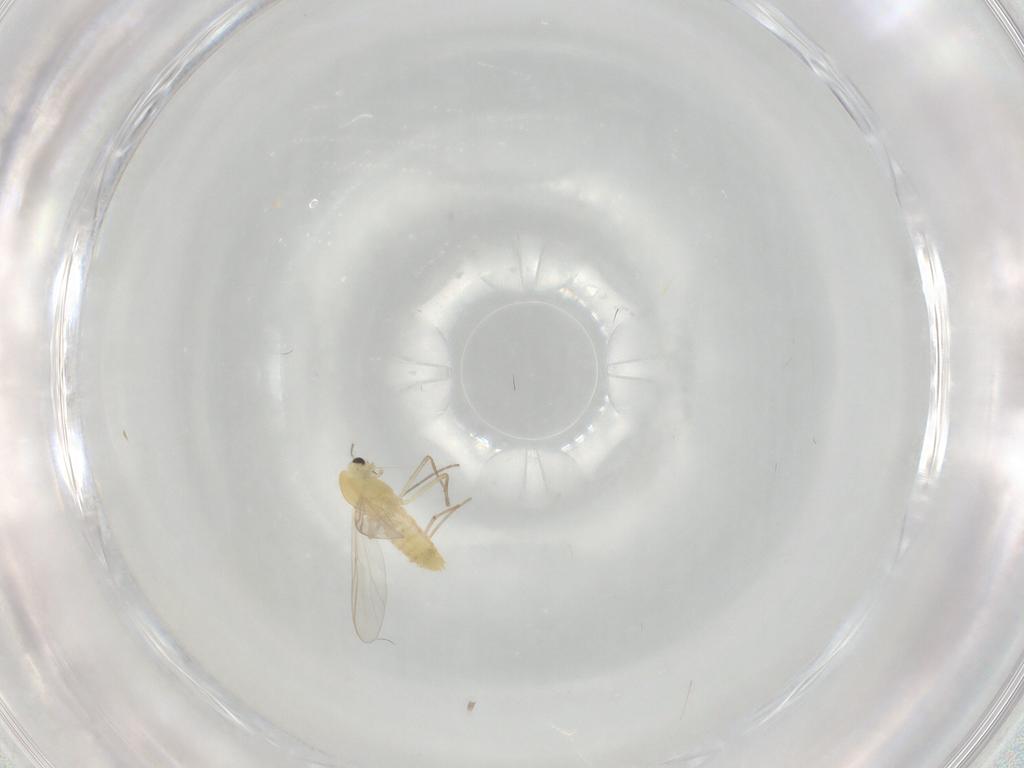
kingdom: Animalia
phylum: Arthropoda
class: Insecta
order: Diptera
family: Chironomidae
